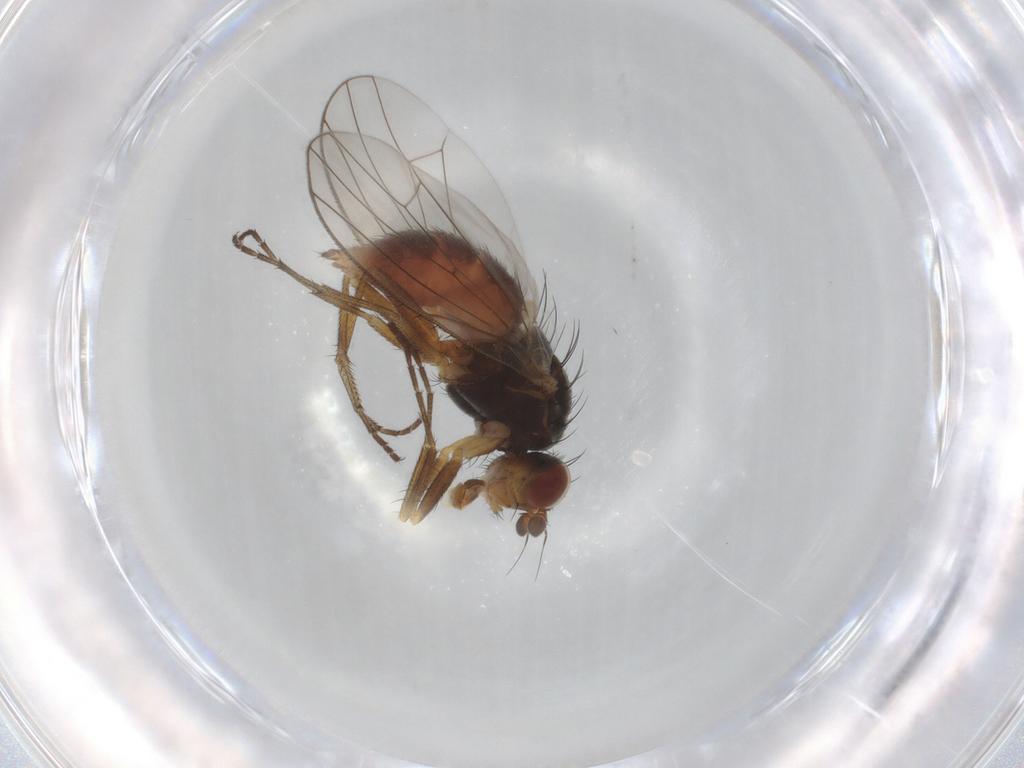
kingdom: Animalia
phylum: Arthropoda
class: Insecta
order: Diptera
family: Heleomyzidae
